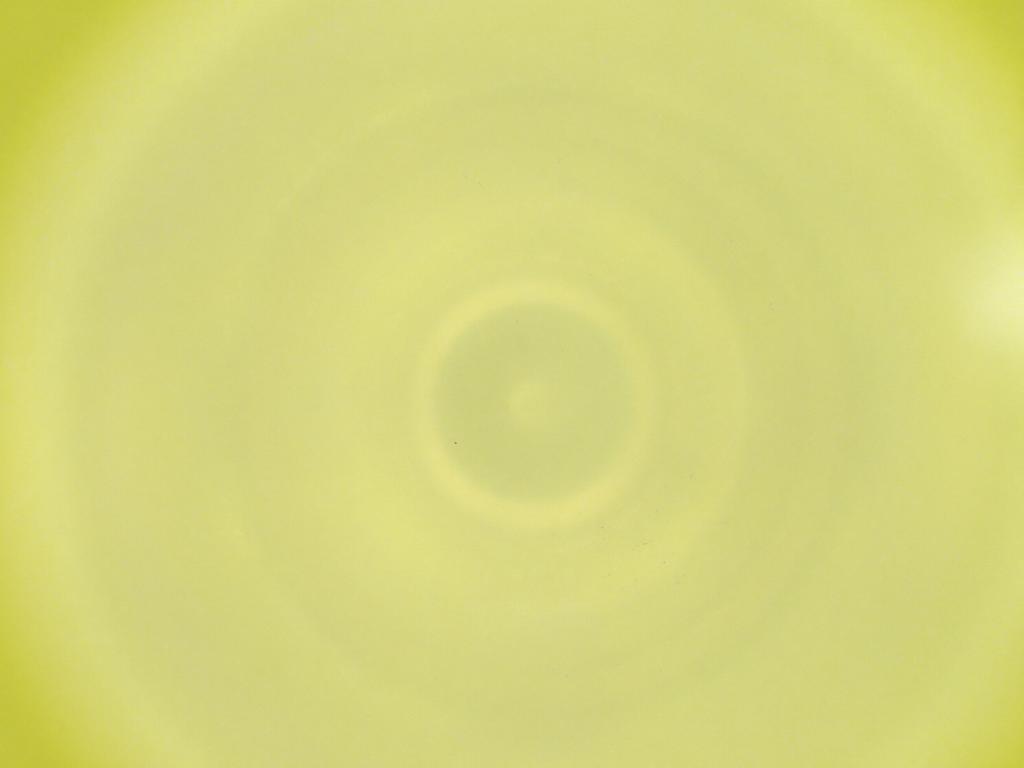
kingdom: Animalia
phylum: Arthropoda
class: Insecta
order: Diptera
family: Cecidomyiidae
